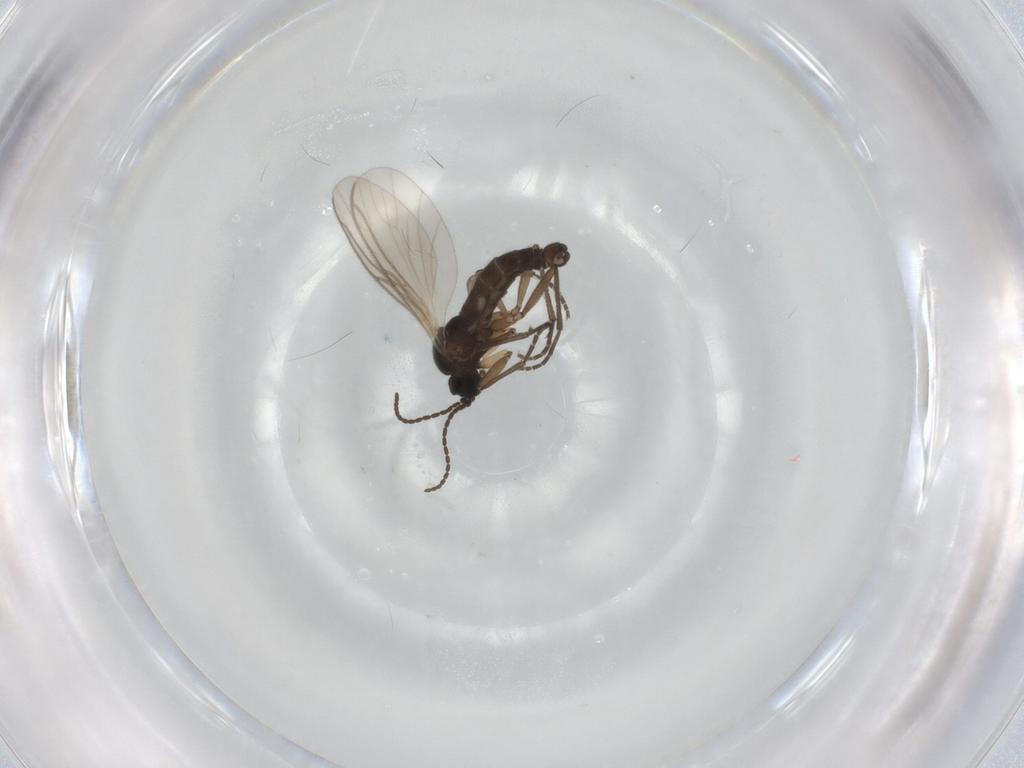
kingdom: Animalia
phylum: Arthropoda
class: Insecta
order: Diptera
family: Chironomidae
